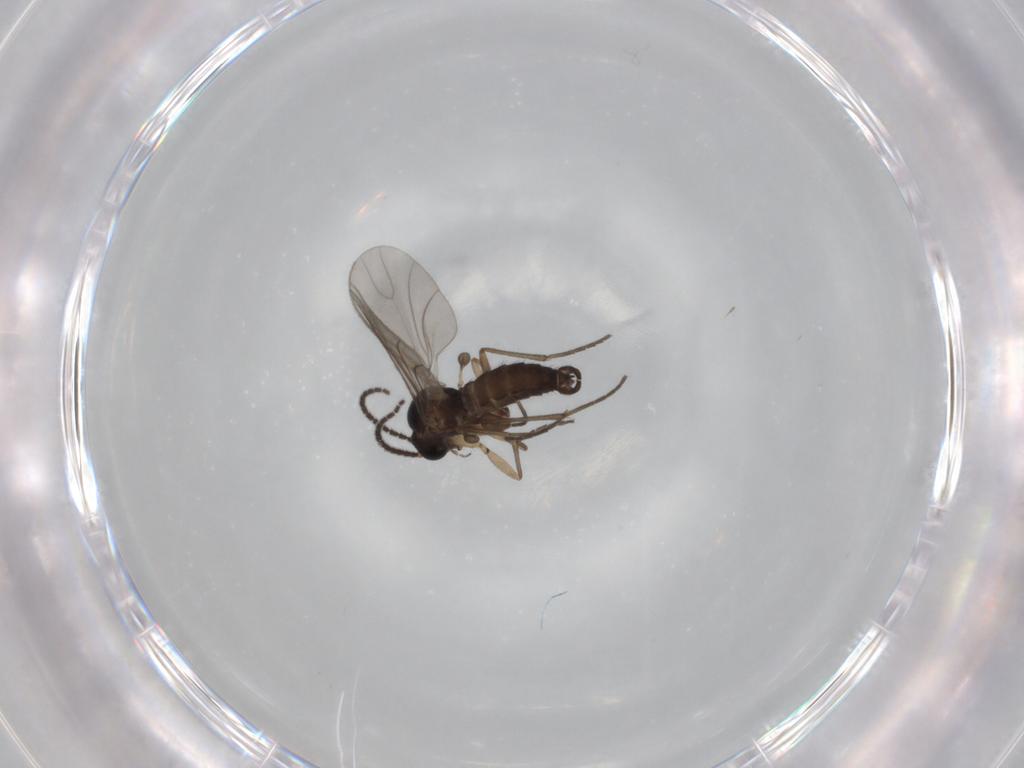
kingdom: Animalia
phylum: Arthropoda
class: Insecta
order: Diptera
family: Sciaridae
